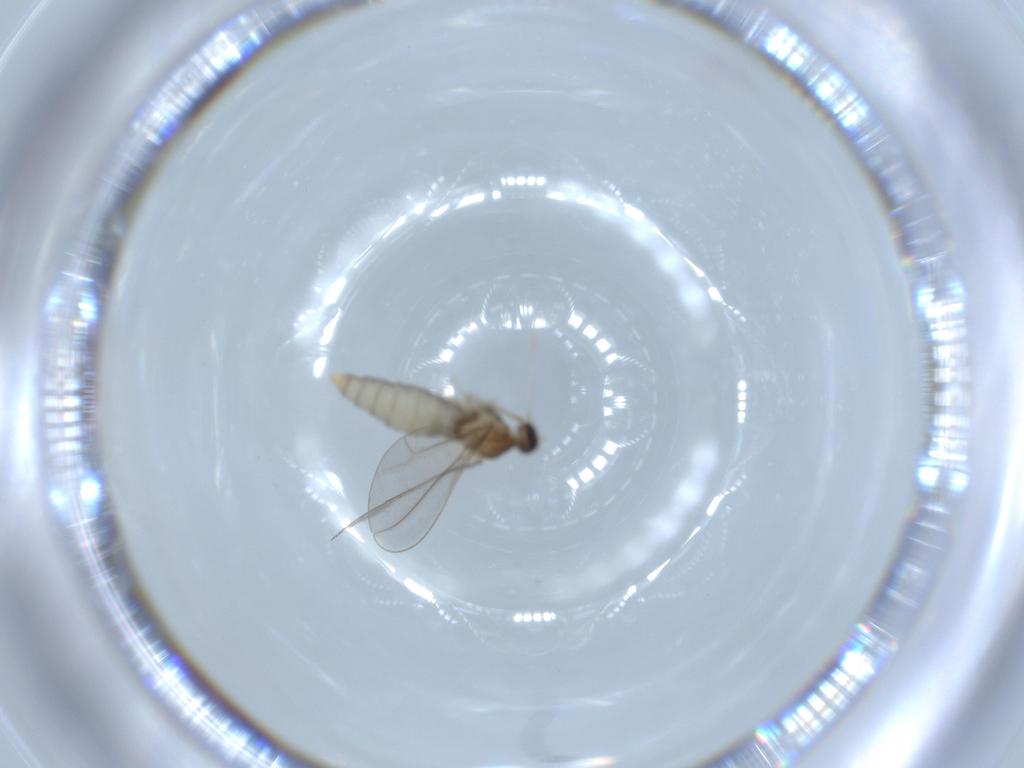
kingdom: Animalia
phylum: Arthropoda
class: Insecta
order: Diptera
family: Cecidomyiidae
